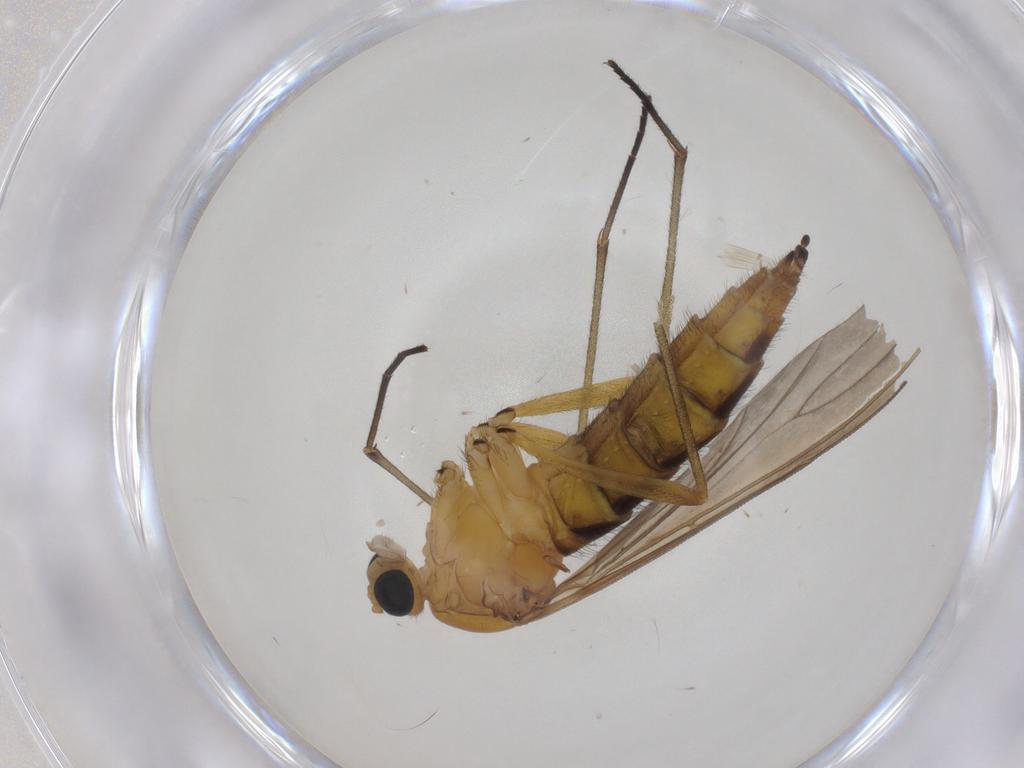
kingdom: Animalia
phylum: Arthropoda
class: Insecta
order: Diptera
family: Sciaridae
